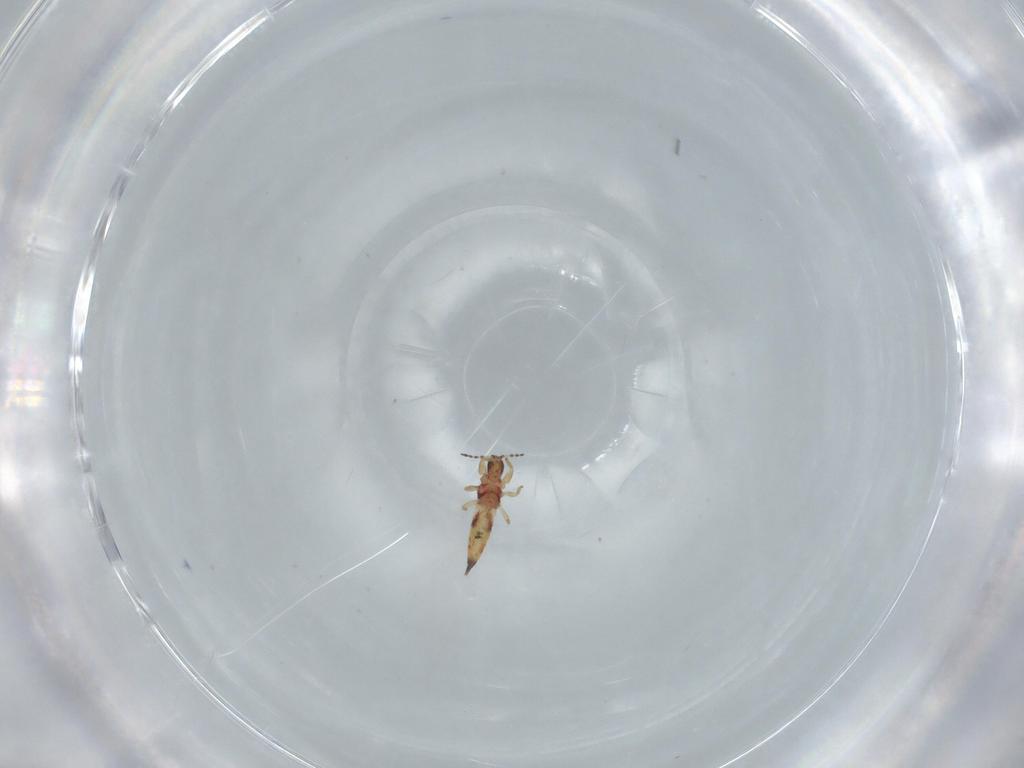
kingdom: Animalia
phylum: Arthropoda
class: Insecta
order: Thysanoptera
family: Phlaeothripidae
